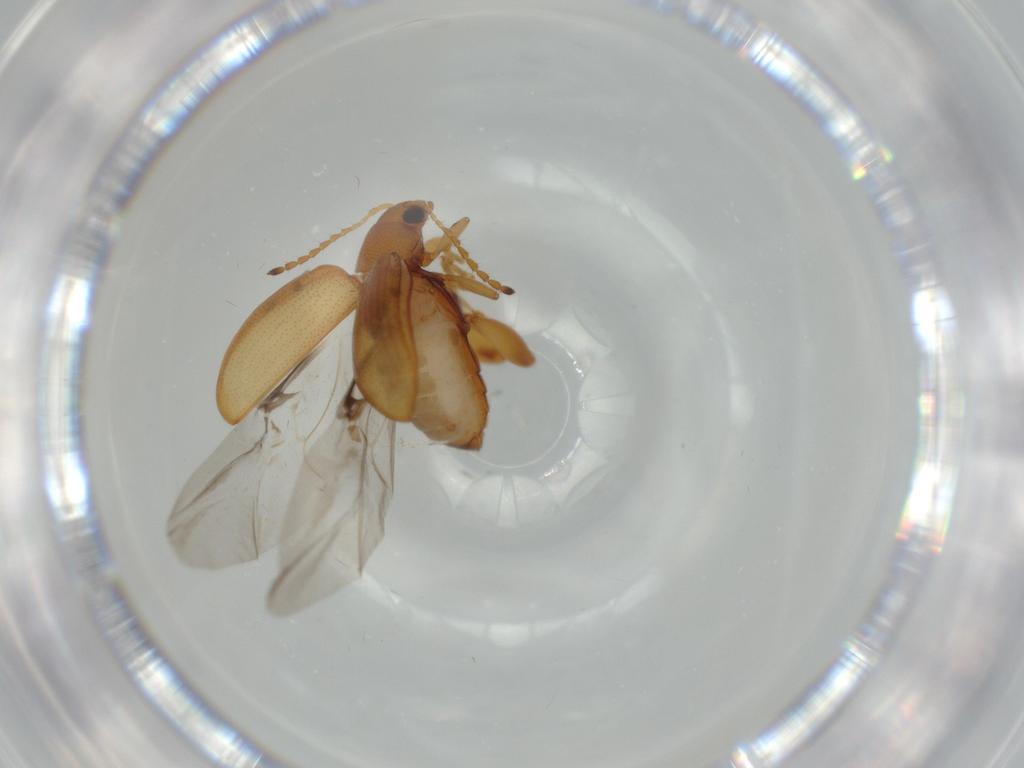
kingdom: Animalia
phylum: Arthropoda
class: Insecta
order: Coleoptera
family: Chrysomelidae
